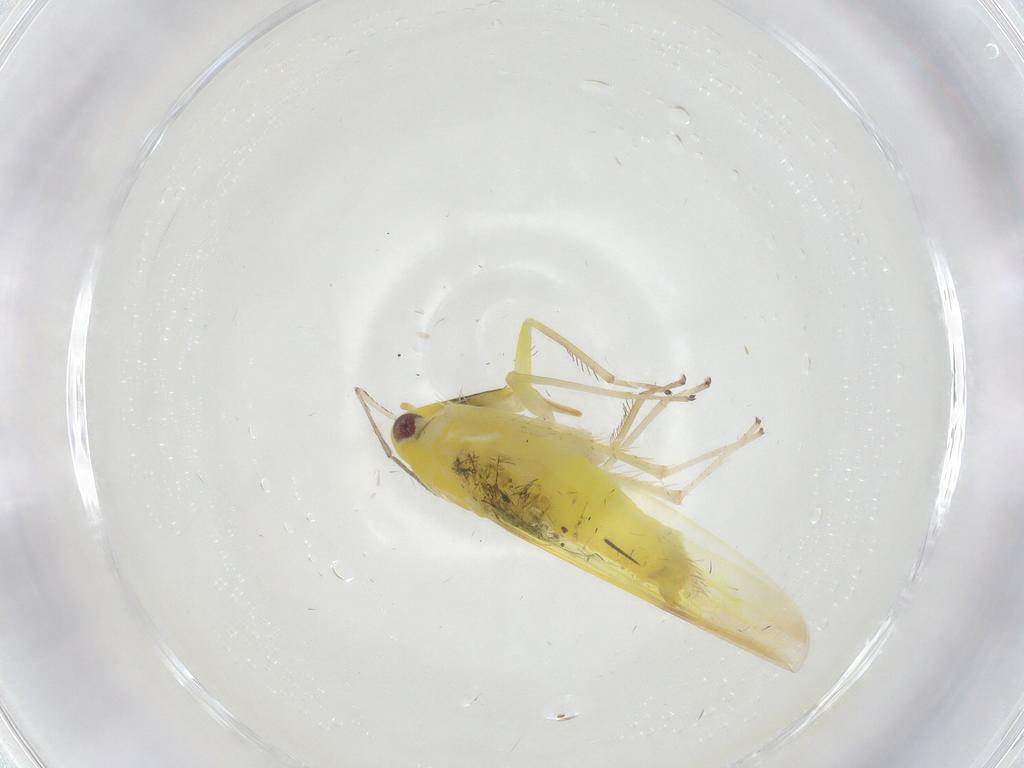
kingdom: Animalia
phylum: Arthropoda
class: Insecta
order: Hemiptera
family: Cicadellidae
